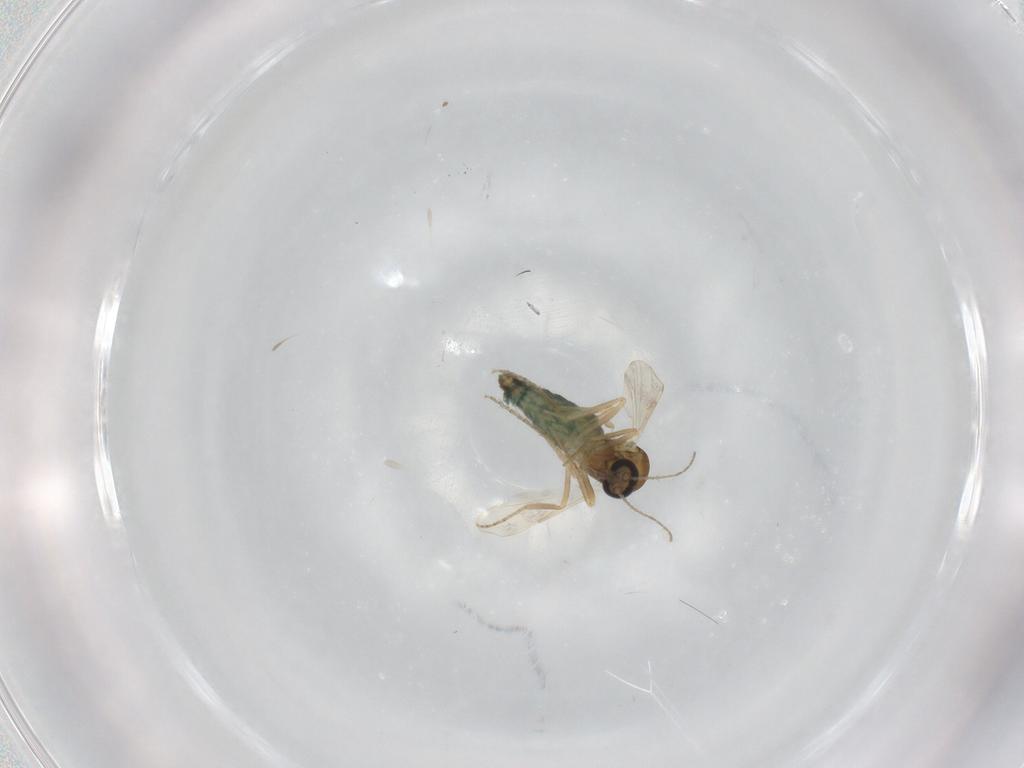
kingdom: Animalia
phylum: Arthropoda
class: Insecta
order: Diptera
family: Ceratopogonidae
